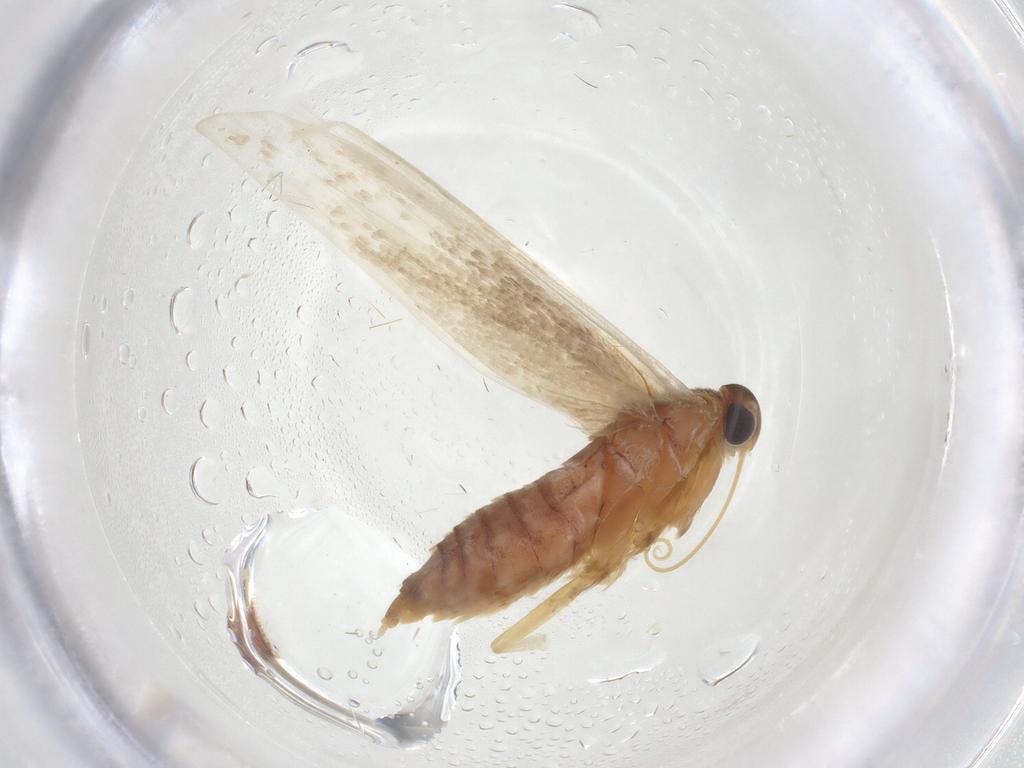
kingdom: Animalia
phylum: Arthropoda
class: Insecta
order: Lepidoptera
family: Blastobasidae
